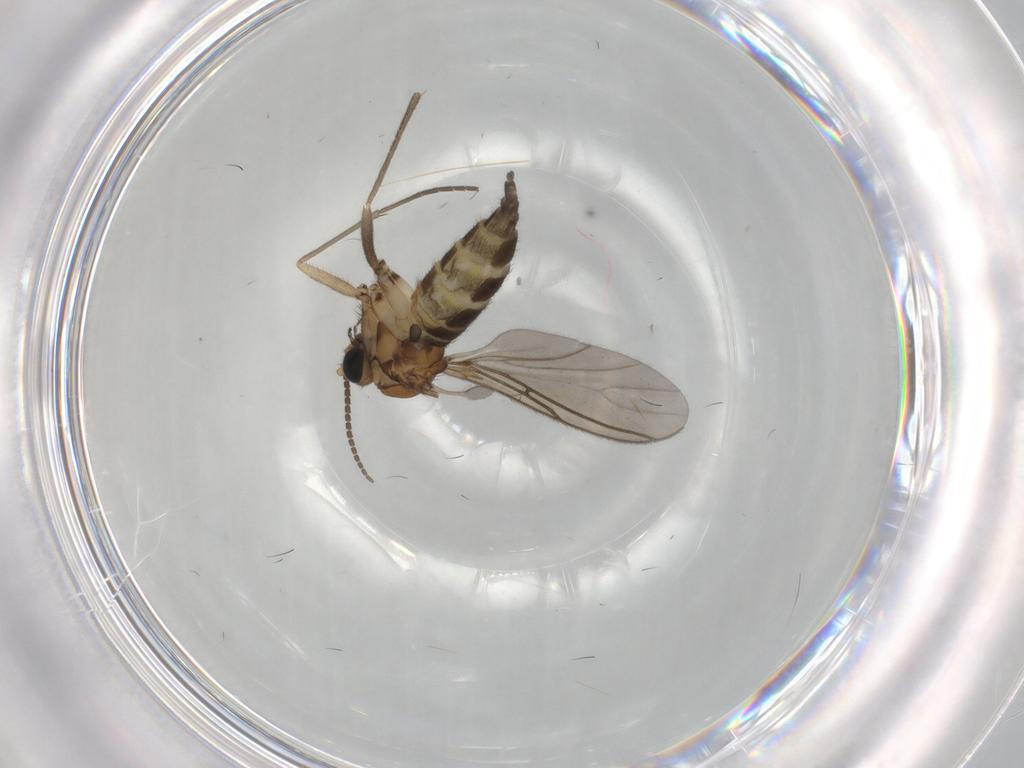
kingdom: Animalia
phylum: Arthropoda
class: Insecta
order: Diptera
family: Sciaridae
